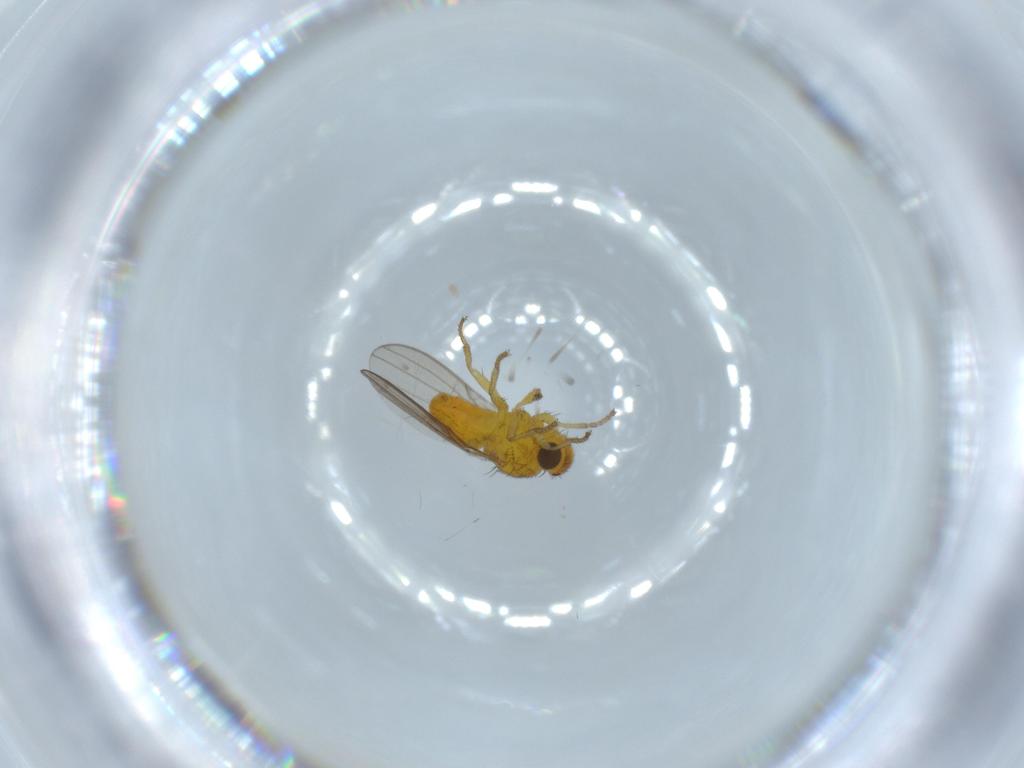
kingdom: Animalia
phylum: Arthropoda
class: Insecta
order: Diptera
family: Fergusoninidae
